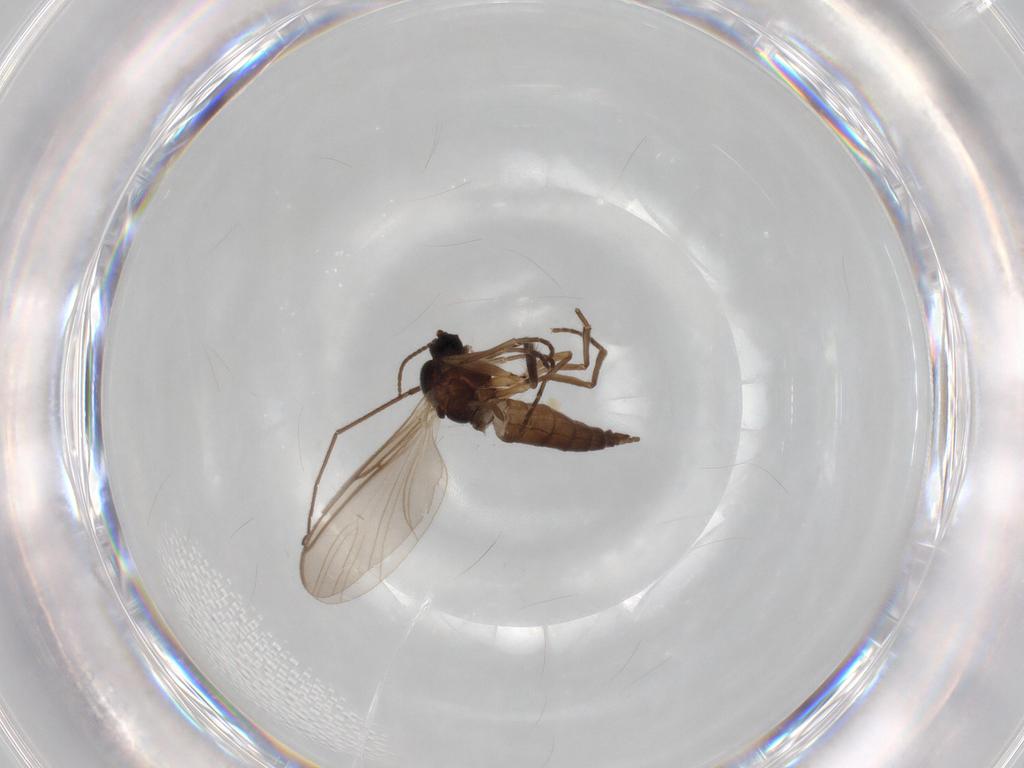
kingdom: Animalia
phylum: Arthropoda
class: Insecta
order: Diptera
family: Chironomidae
